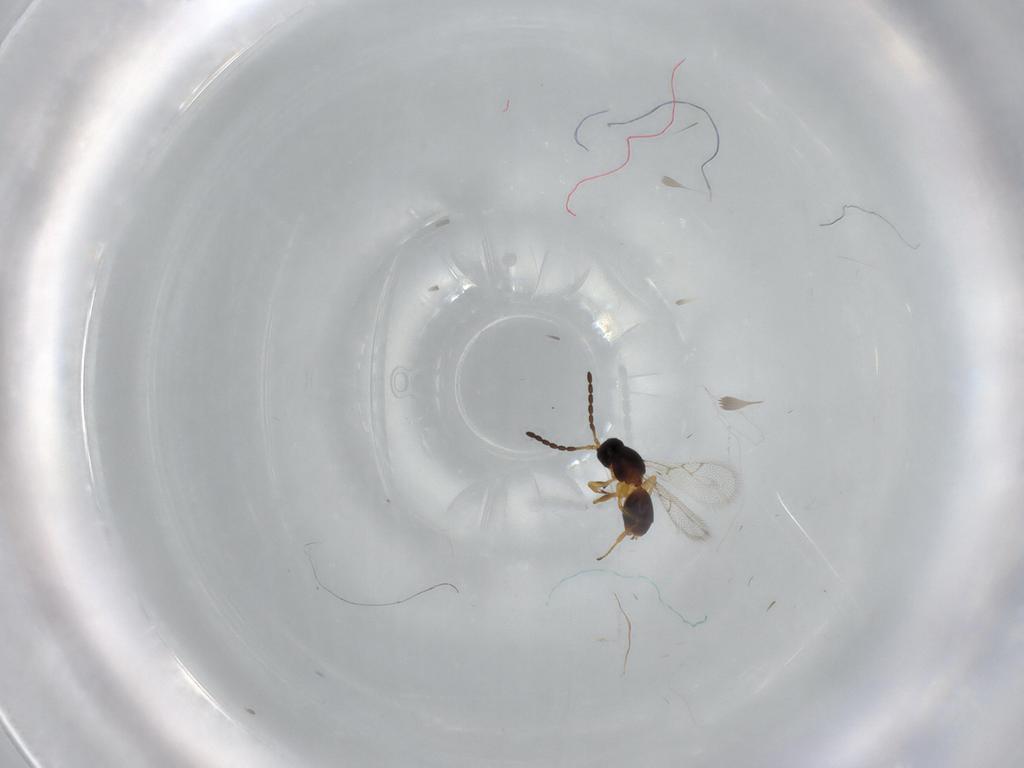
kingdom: Animalia
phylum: Arthropoda
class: Insecta
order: Hymenoptera
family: Figitidae
